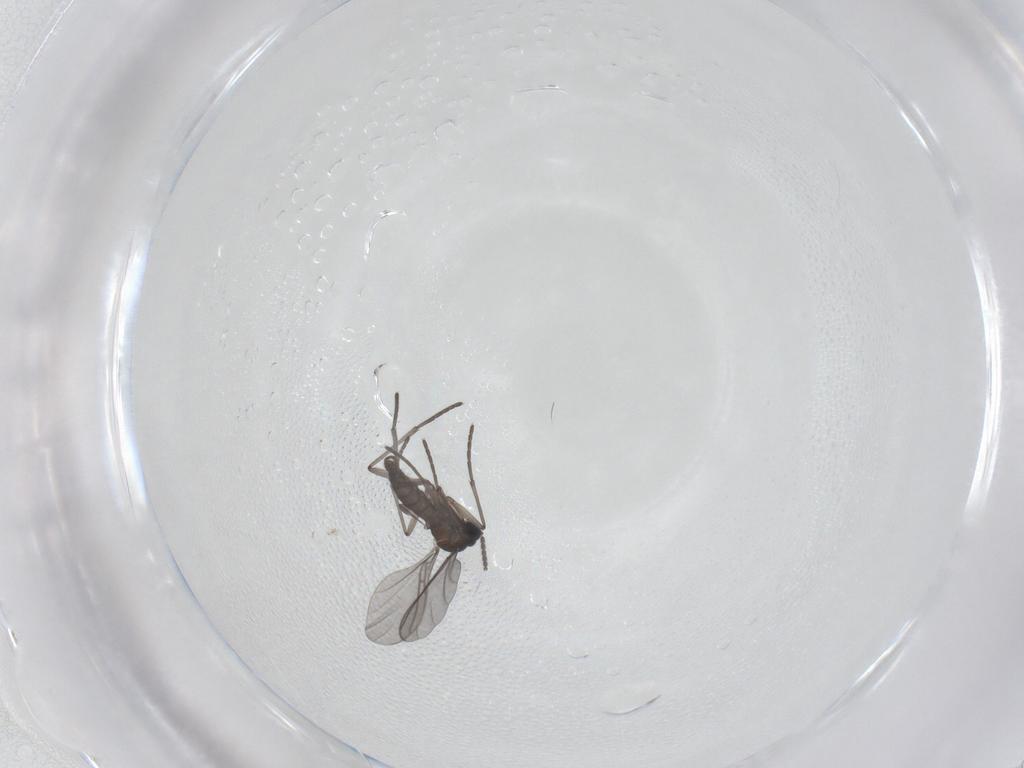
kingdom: Animalia
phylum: Arthropoda
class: Insecta
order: Diptera
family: Sciaridae
